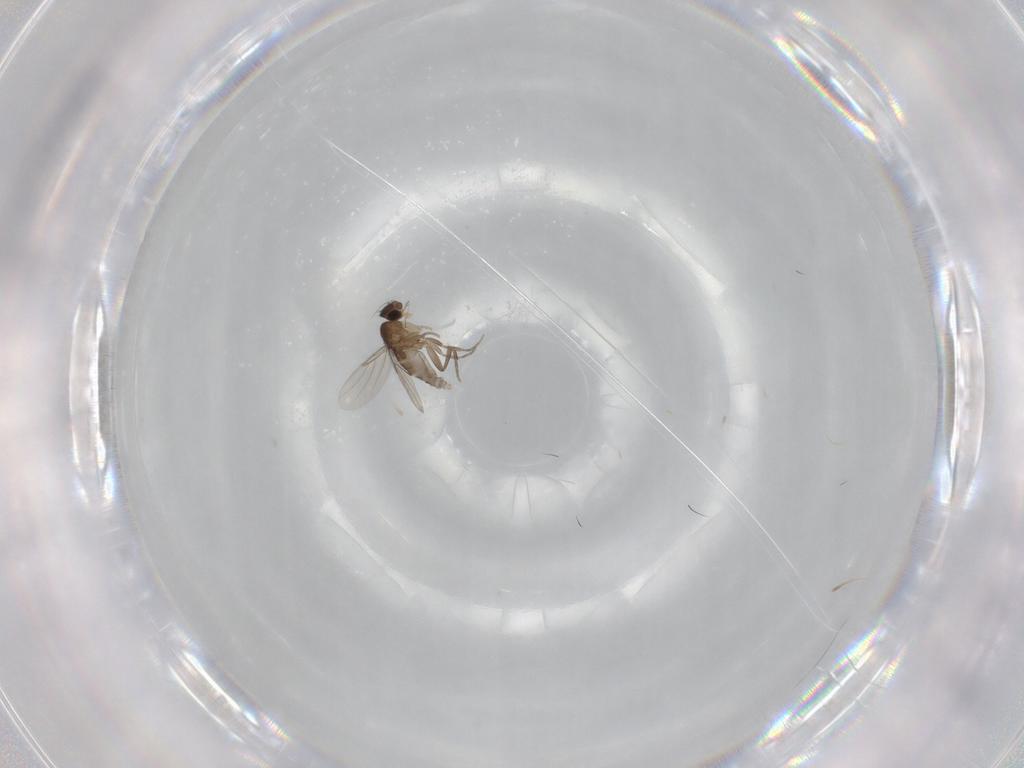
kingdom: Animalia
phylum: Arthropoda
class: Insecta
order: Diptera
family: Phoridae
